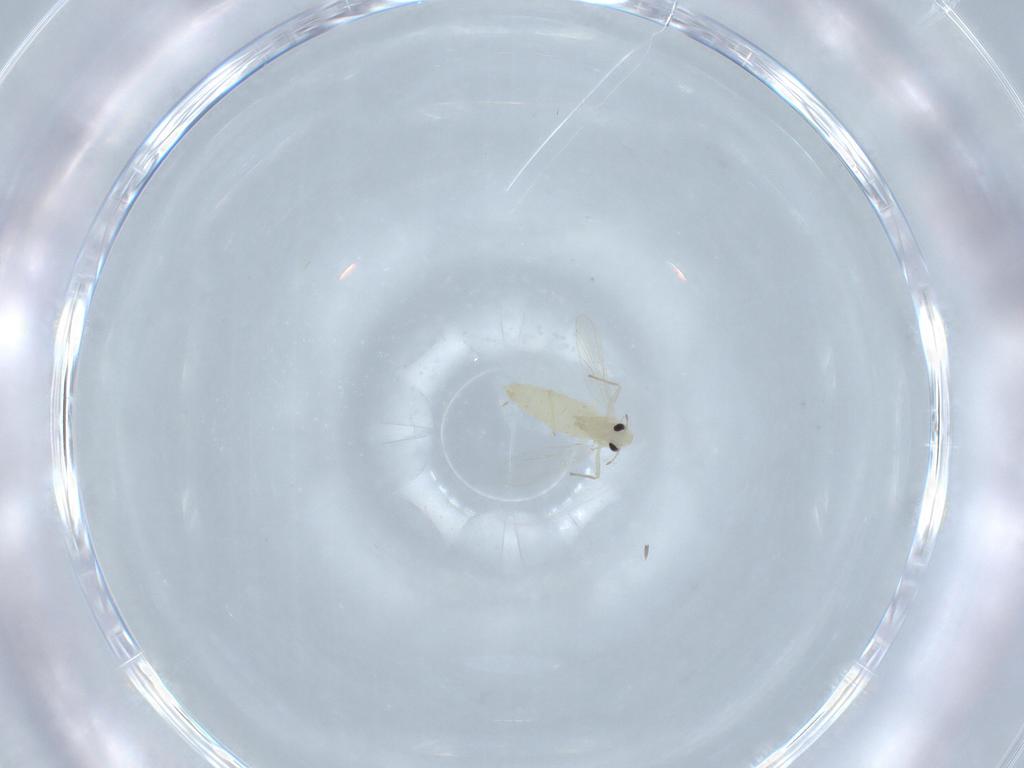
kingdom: Animalia
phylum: Arthropoda
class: Insecta
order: Diptera
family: Chironomidae
